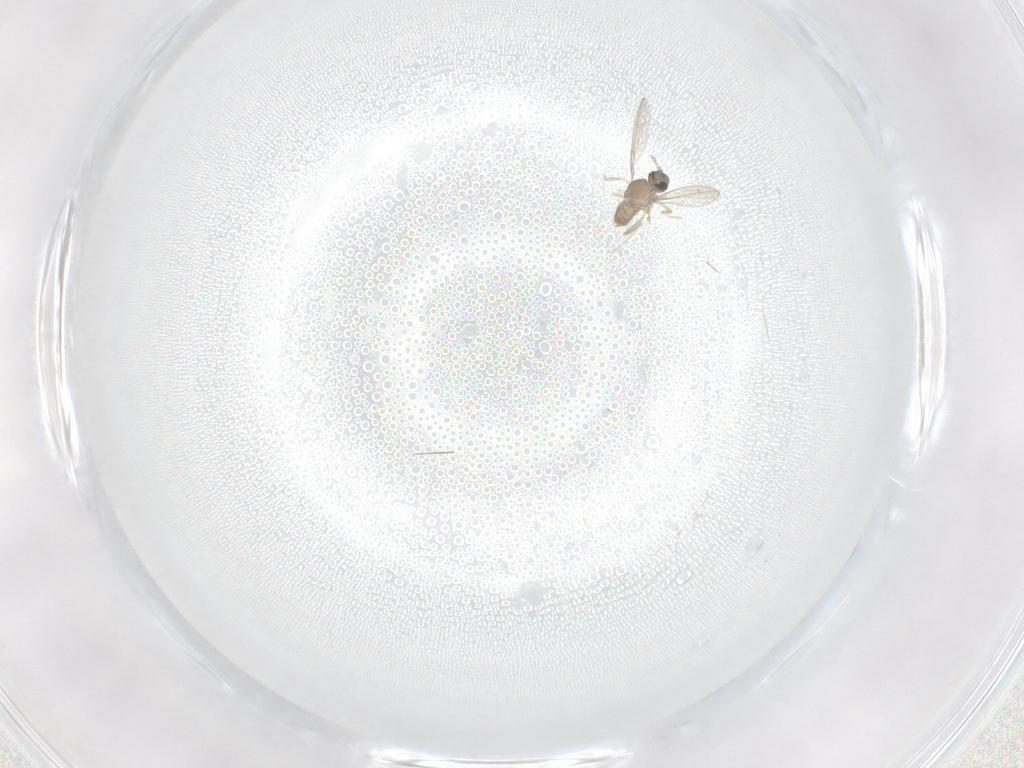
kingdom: Animalia
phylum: Arthropoda
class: Insecta
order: Diptera
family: Cecidomyiidae
